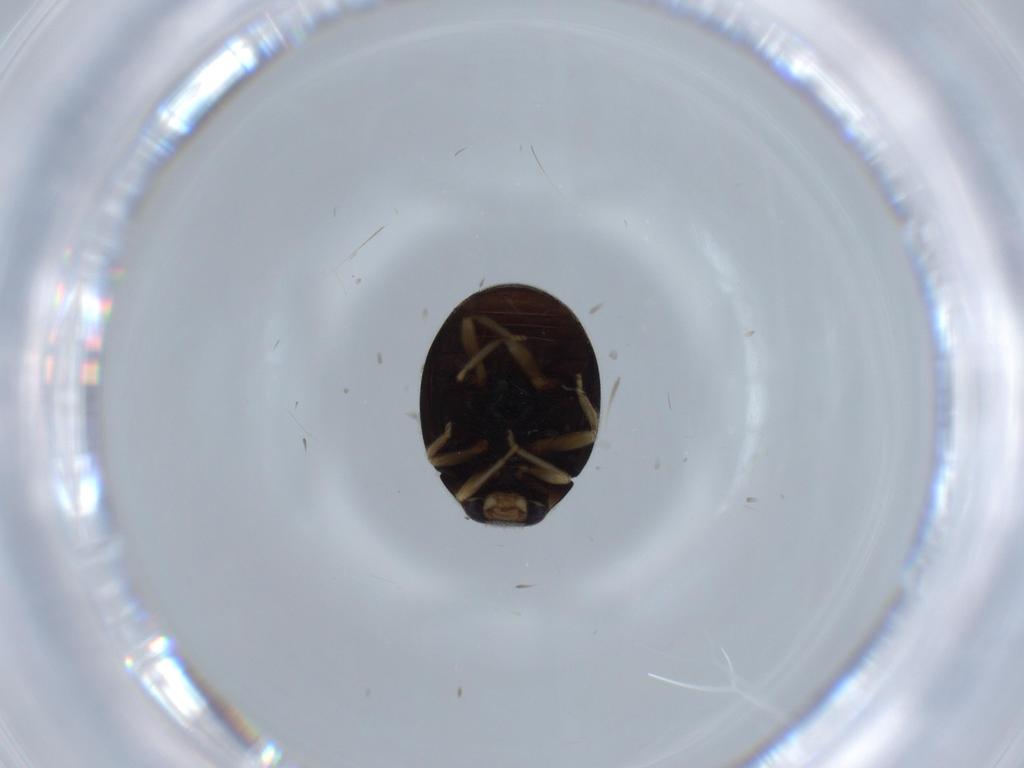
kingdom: Animalia
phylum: Arthropoda
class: Insecta
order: Coleoptera
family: Coccinellidae
